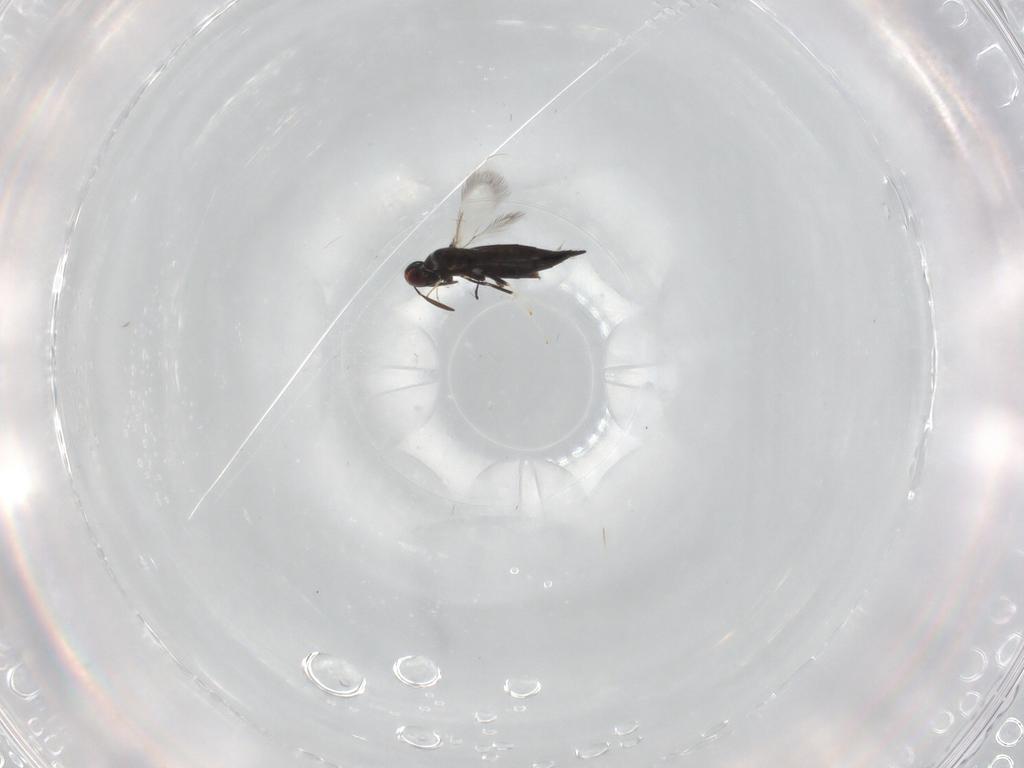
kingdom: Animalia
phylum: Arthropoda
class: Insecta
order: Hymenoptera
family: Signiphoridae
